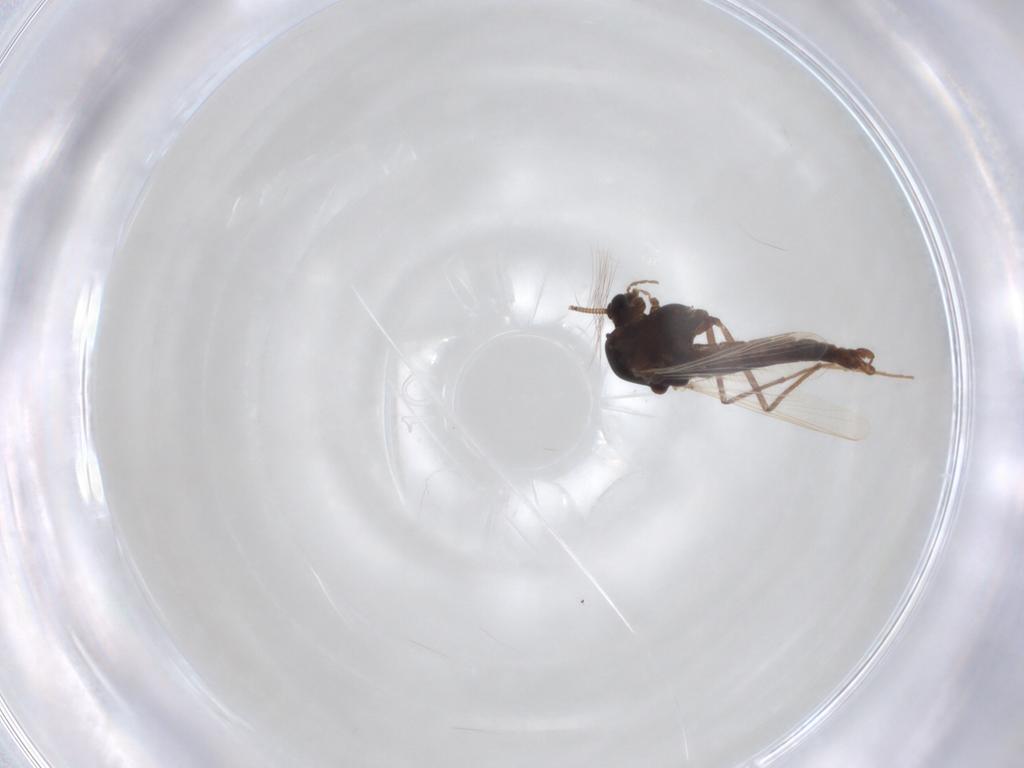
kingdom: Animalia
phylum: Arthropoda
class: Insecta
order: Diptera
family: Chironomidae
